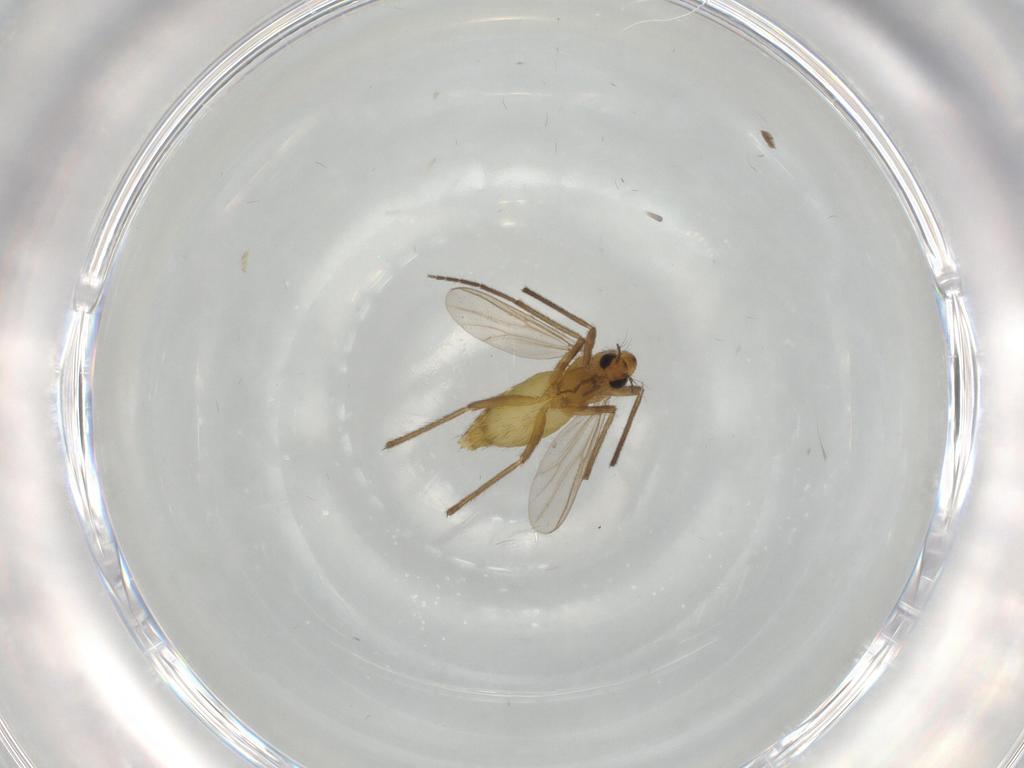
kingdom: Animalia
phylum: Arthropoda
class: Insecta
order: Diptera
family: Chironomidae
